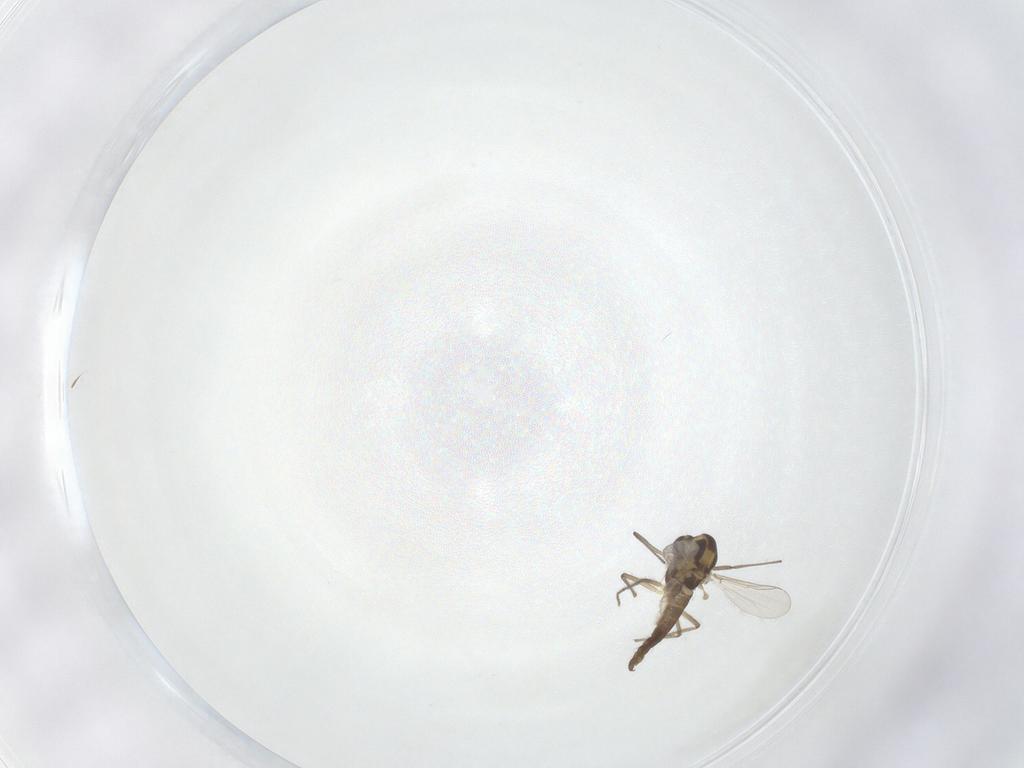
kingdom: Animalia
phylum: Arthropoda
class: Insecta
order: Diptera
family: Chironomidae
